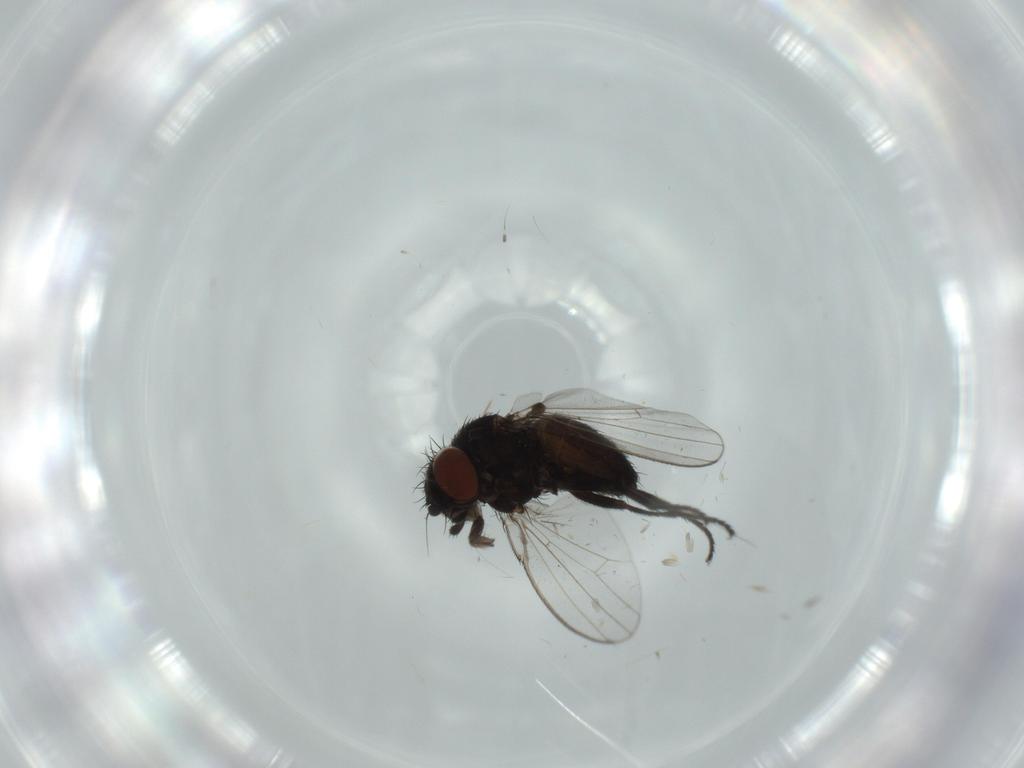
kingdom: Animalia
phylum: Arthropoda
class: Insecta
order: Diptera
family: Milichiidae
